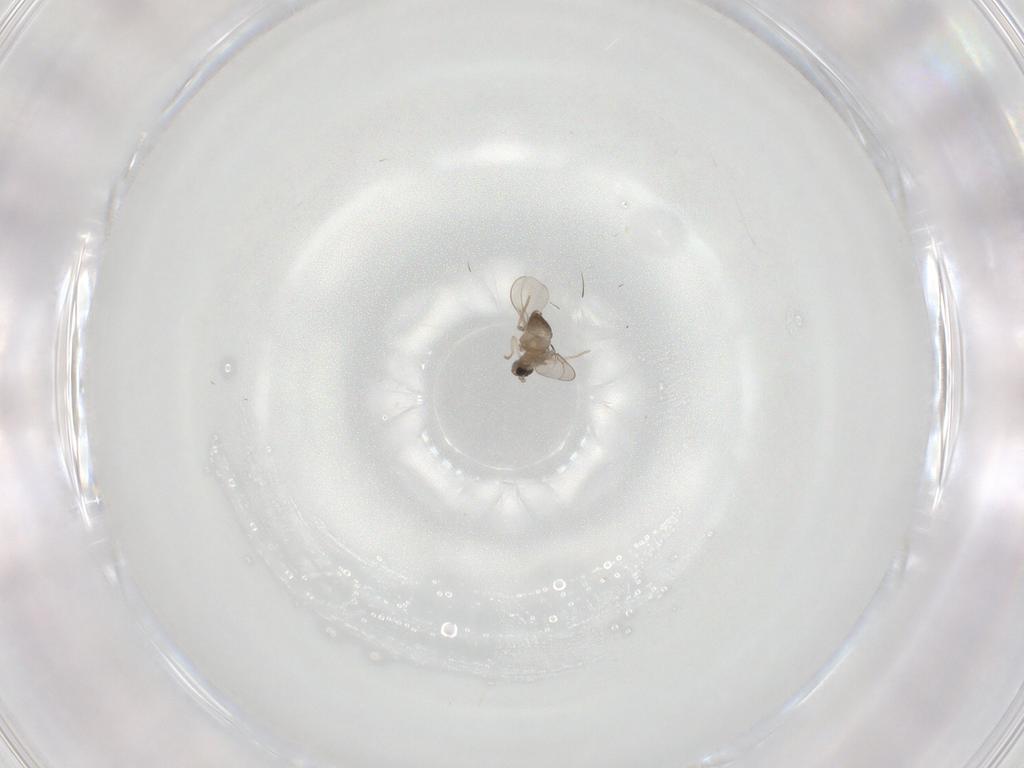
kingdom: Animalia
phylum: Arthropoda
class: Insecta
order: Diptera
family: Cecidomyiidae
